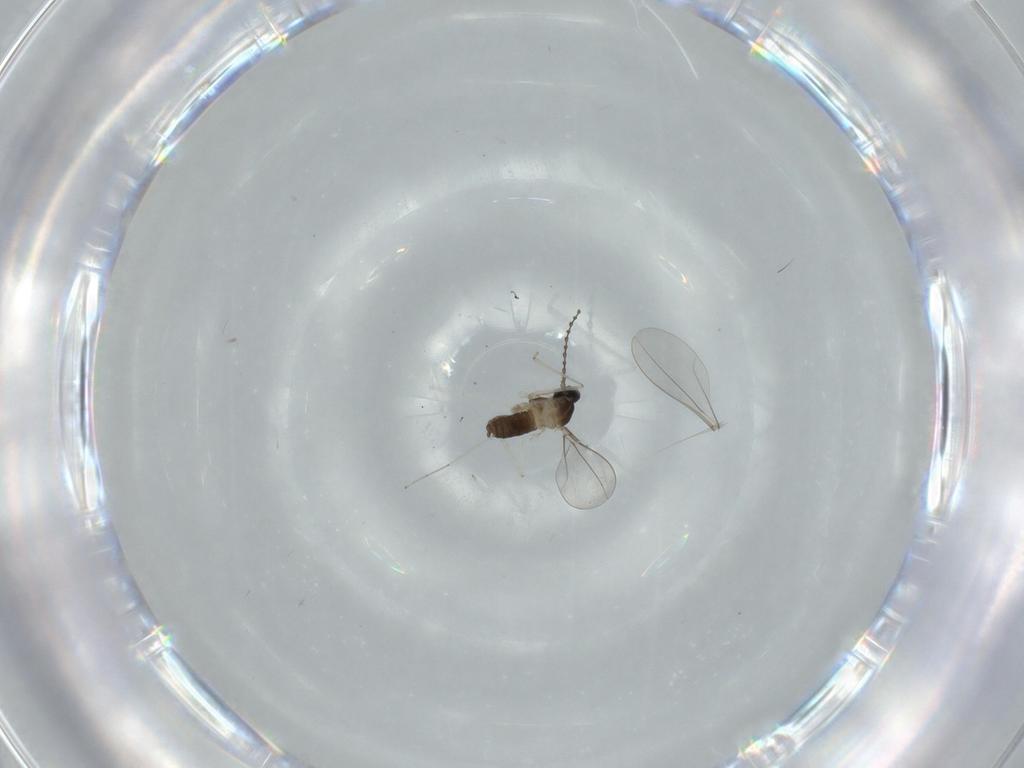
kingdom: Animalia
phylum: Arthropoda
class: Insecta
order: Diptera
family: Cecidomyiidae
